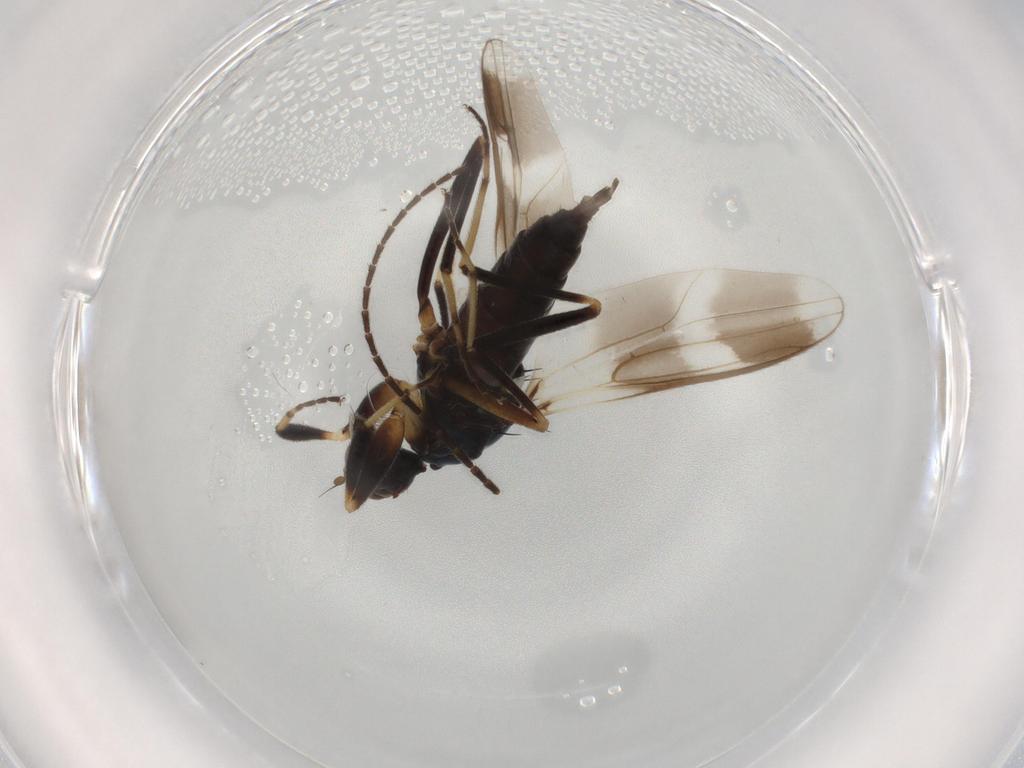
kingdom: Animalia
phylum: Arthropoda
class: Insecta
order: Diptera
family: Hybotidae
